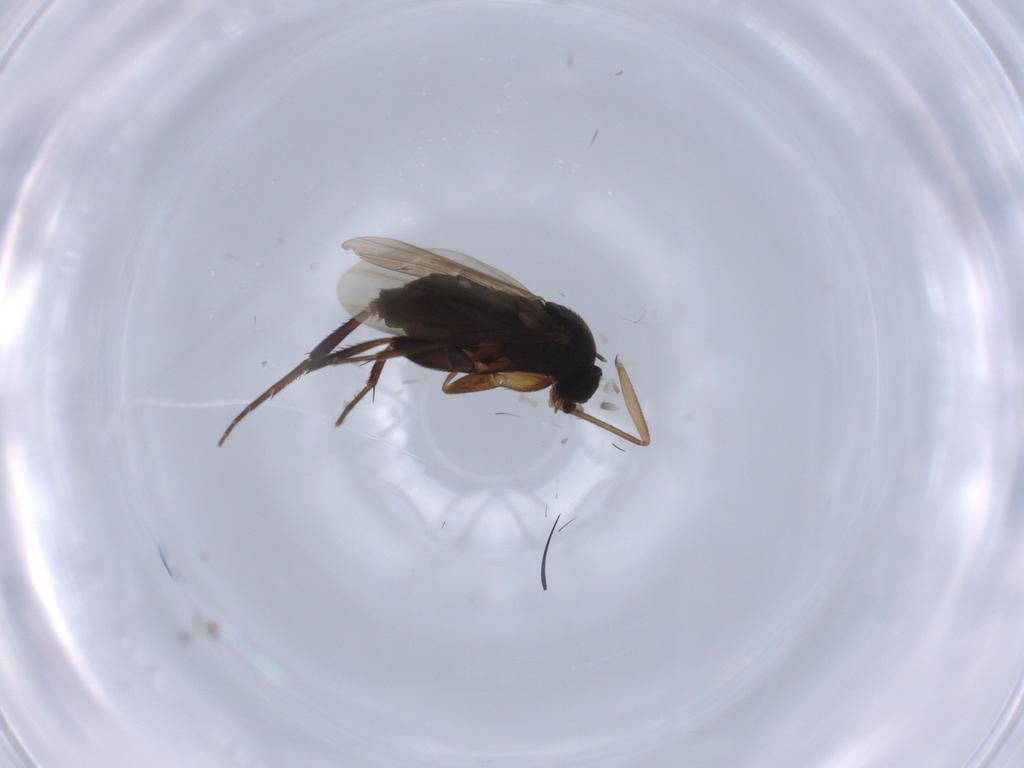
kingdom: Animalia
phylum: Arthropoda
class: Insecta
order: Diptera
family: Phoridae
